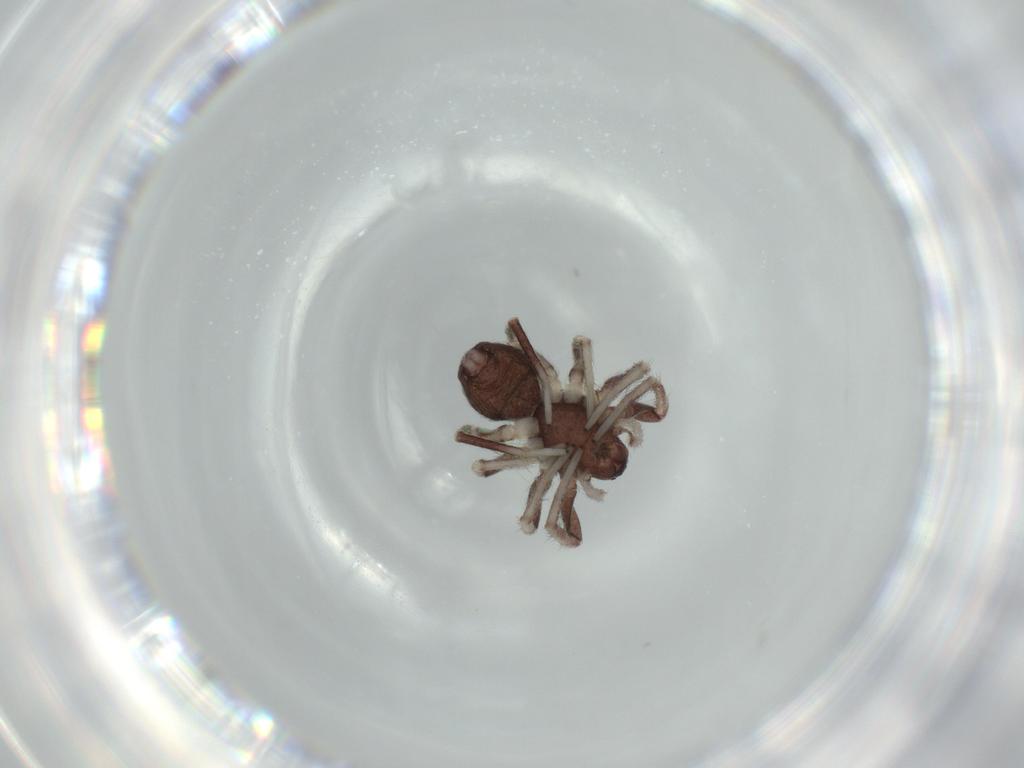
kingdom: Animalia
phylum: Arthropoda
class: Arachnida
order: Araneae
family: Corinnidae
